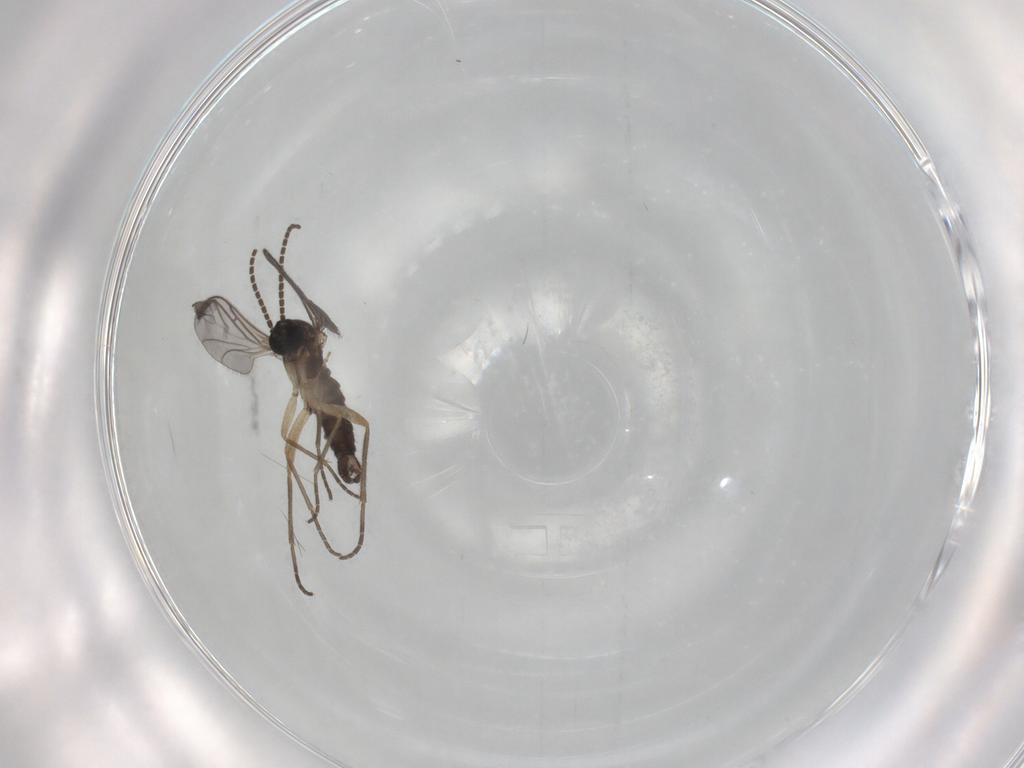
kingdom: Animalia
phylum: Arthropoda
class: Insecta
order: Diptera
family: Sciaridae
